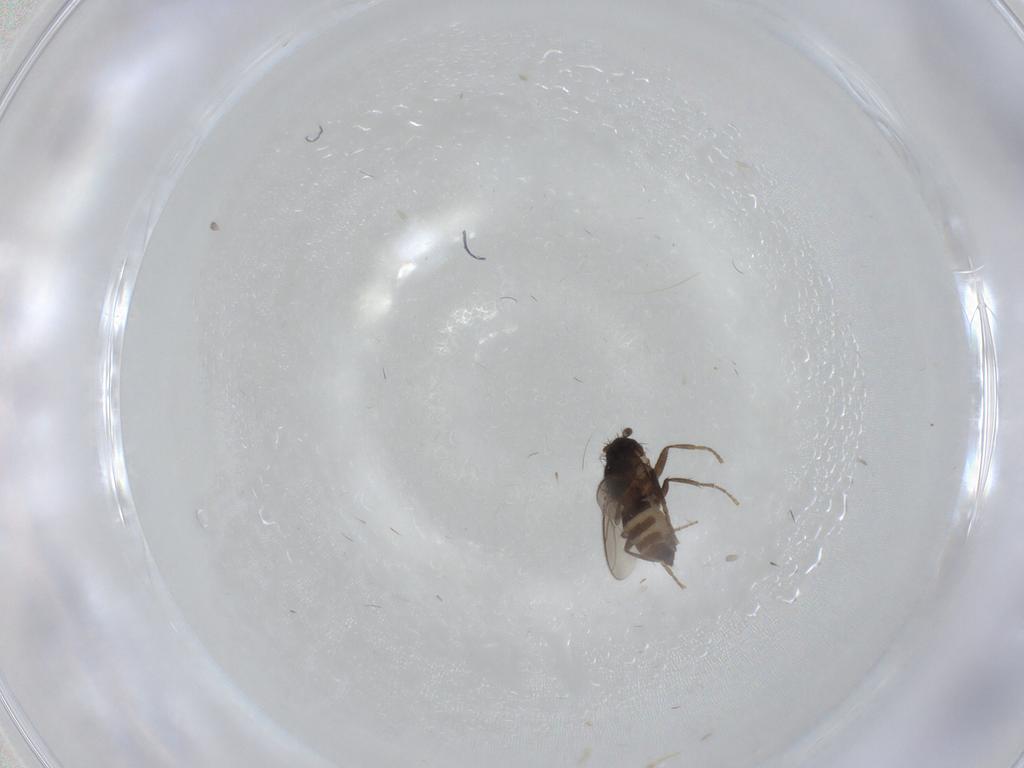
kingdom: Animalia
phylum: Arthropoda
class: Insecta
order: Diptera
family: Sphaeroceridae
